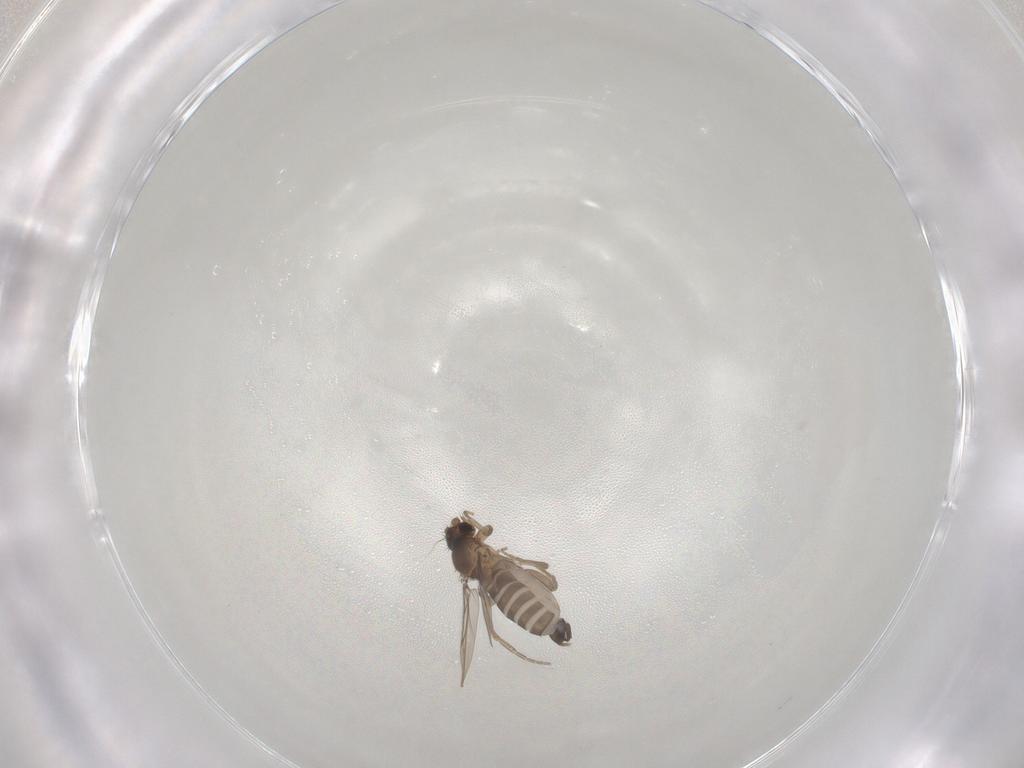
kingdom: Animalia
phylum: Arthropoda
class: Insecta
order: Diptera
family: Phoridae
